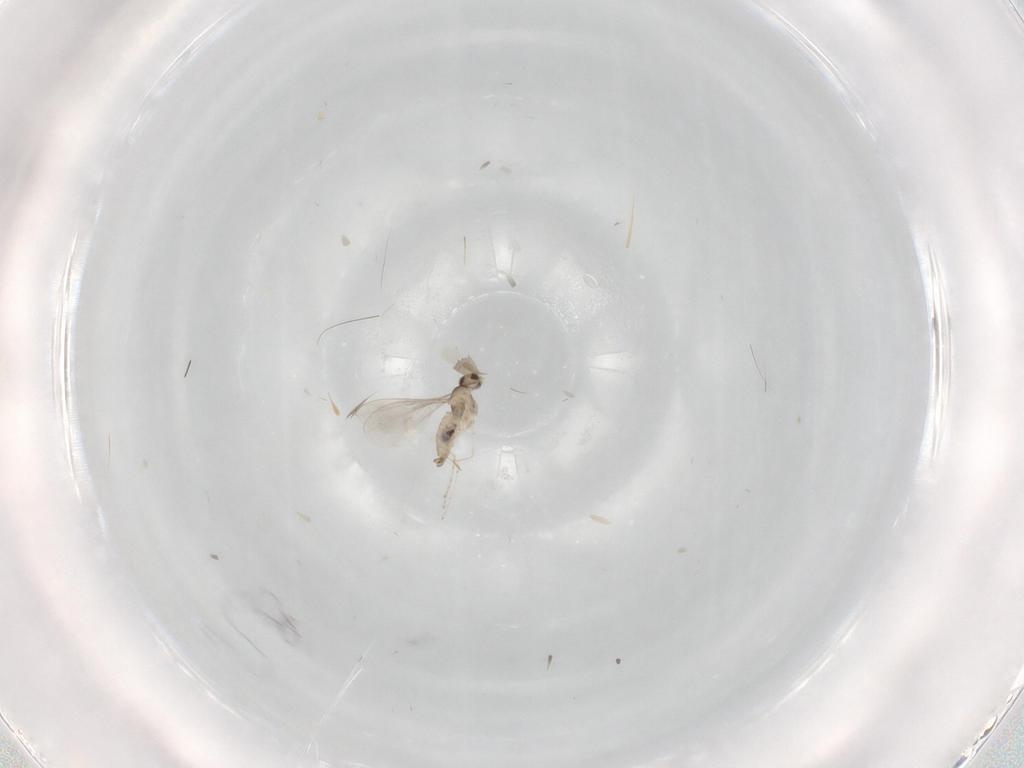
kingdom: Animalia
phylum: Arthropoda
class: Insecta
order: Diptera
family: Cecidomyiidae
